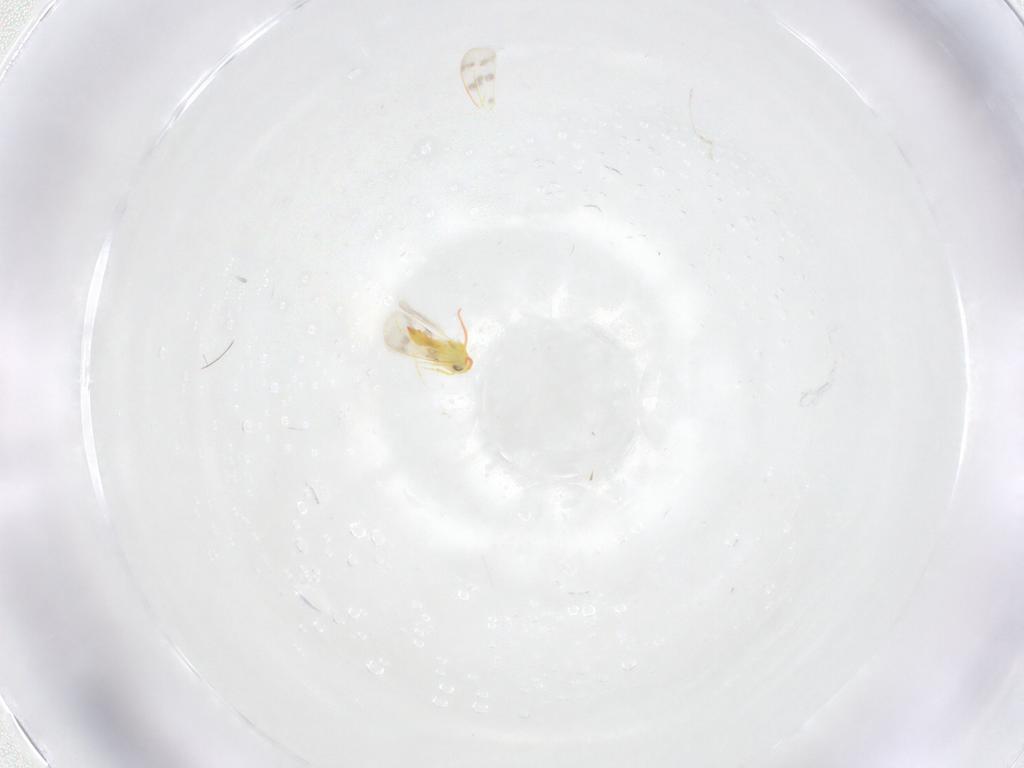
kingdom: Animalia
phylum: Arthropoda
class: Insecta
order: Diptera
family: Cecidomyiidae
